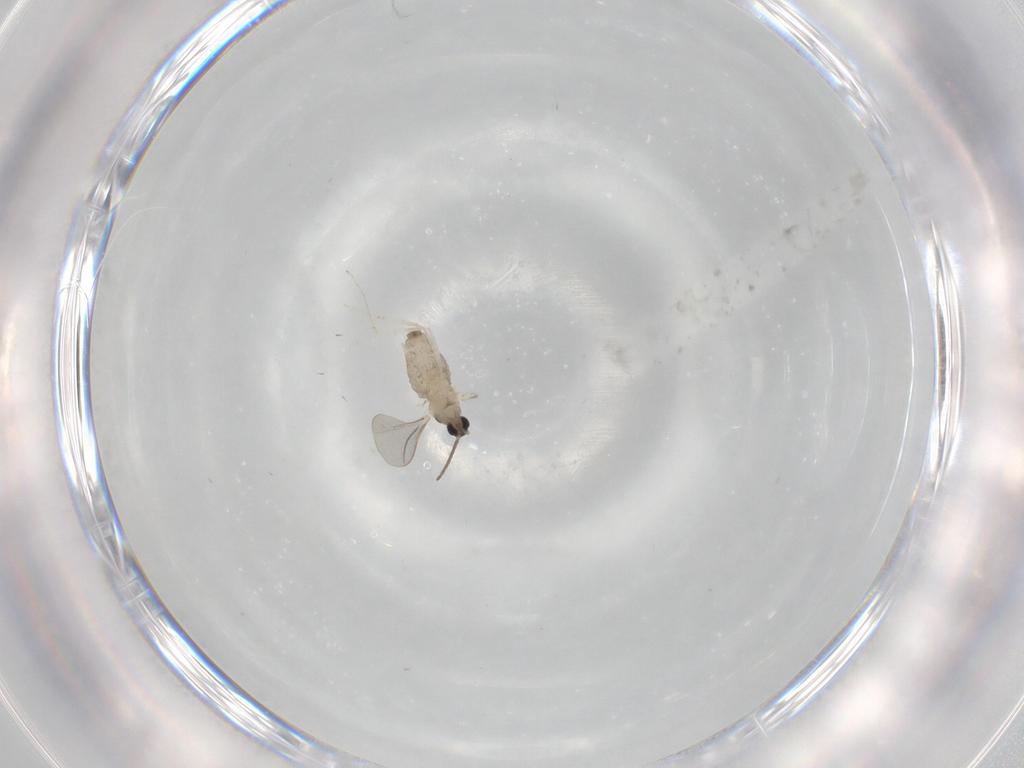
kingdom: Animalia
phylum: Arthropoda
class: Insecta
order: Diptera
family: Cecidomyiidae
